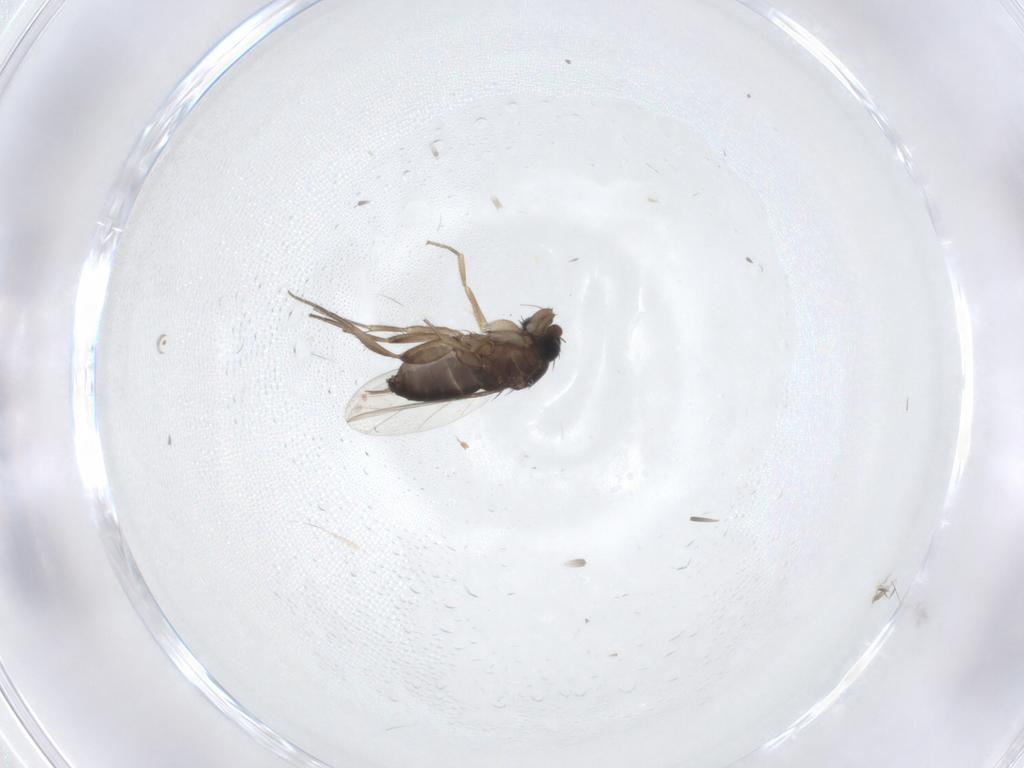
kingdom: Animalia
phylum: Arthropoda
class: Insecta
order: Diptera
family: Phoridae
